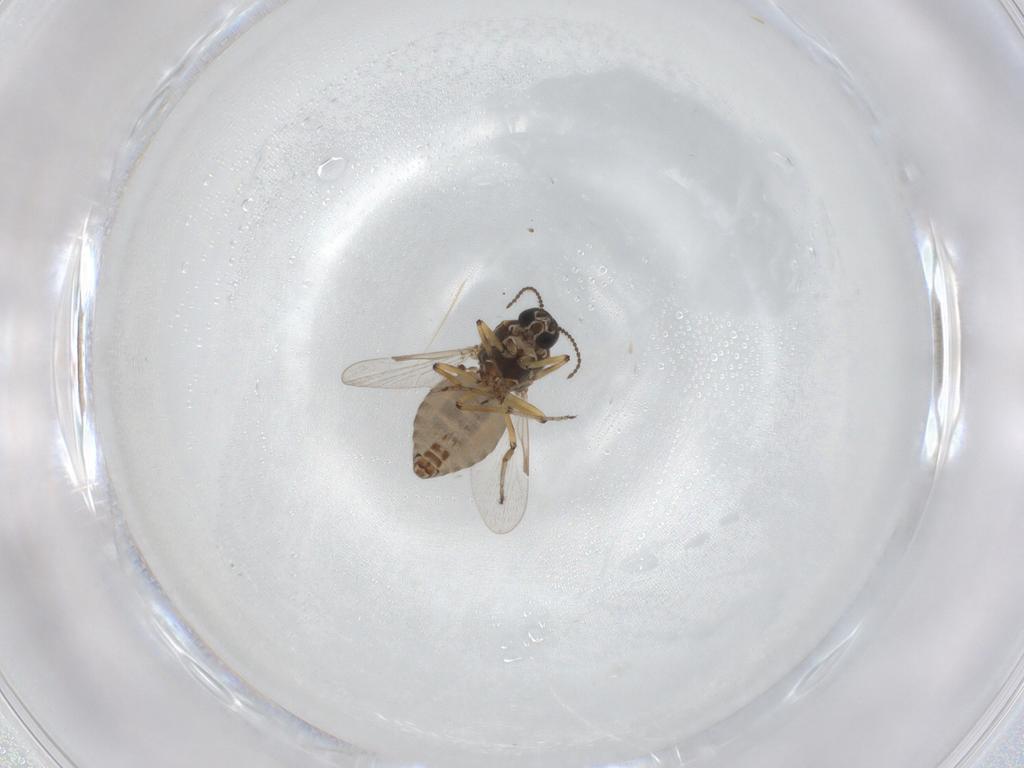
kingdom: Animalia
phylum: Arthropoda
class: Insecta
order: Diptera
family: Ceratopogonidae
